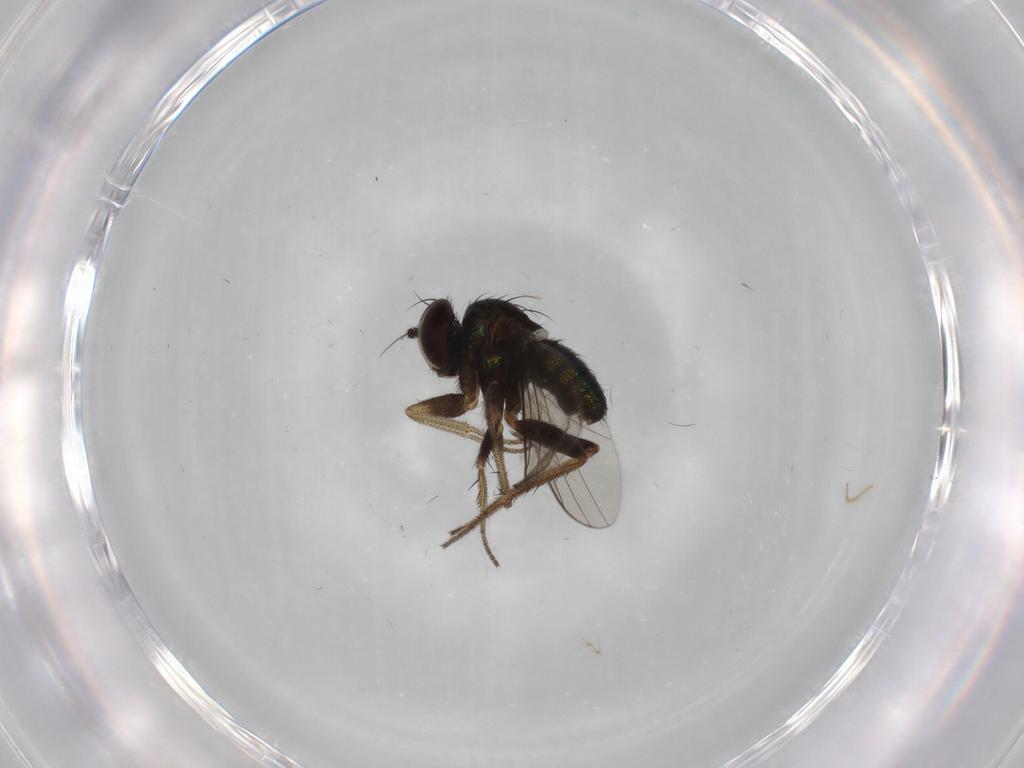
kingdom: Animalia
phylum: Arthropoda
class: Insecta
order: Diptera
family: Dolichopodidae
